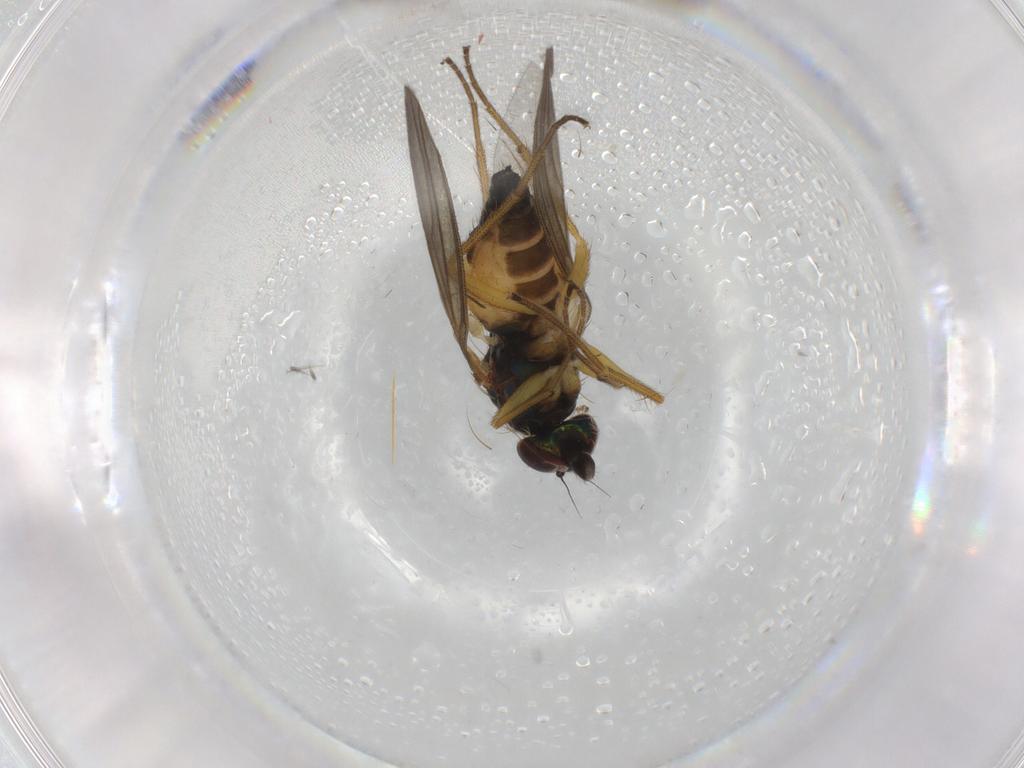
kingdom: Animalia
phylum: Arthropoda
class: Insecta
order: Diptera
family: Dolichopodidae
